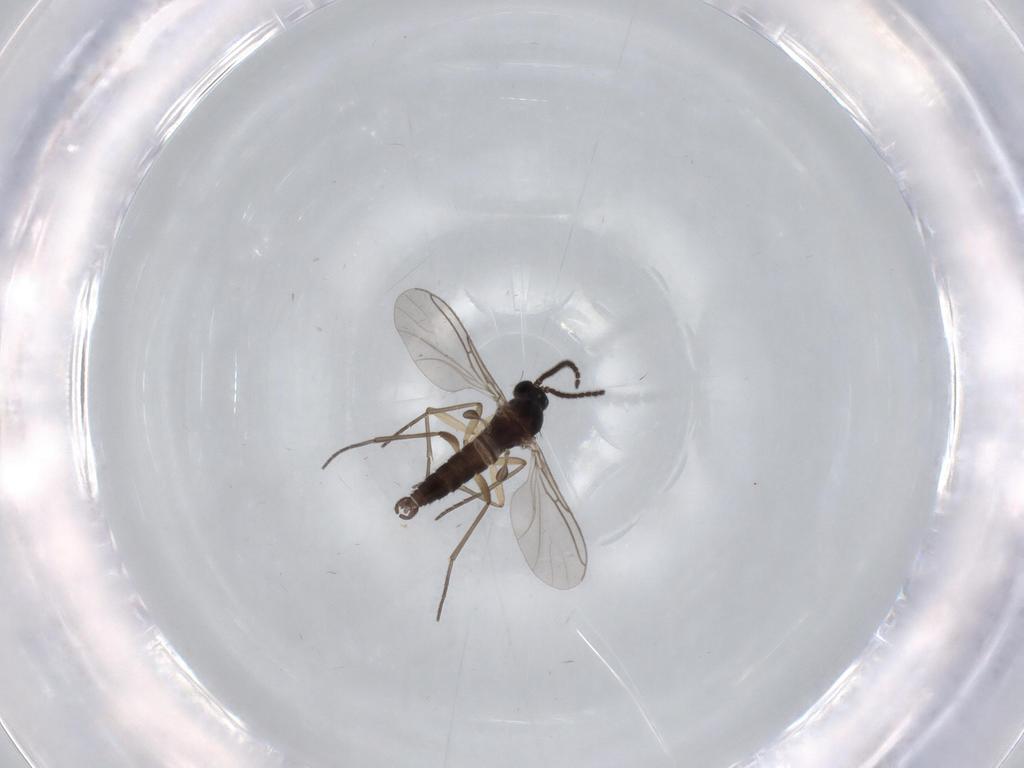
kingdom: Animalia
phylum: Arthropoda
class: Insecta
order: Diptera
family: Sciaridae
